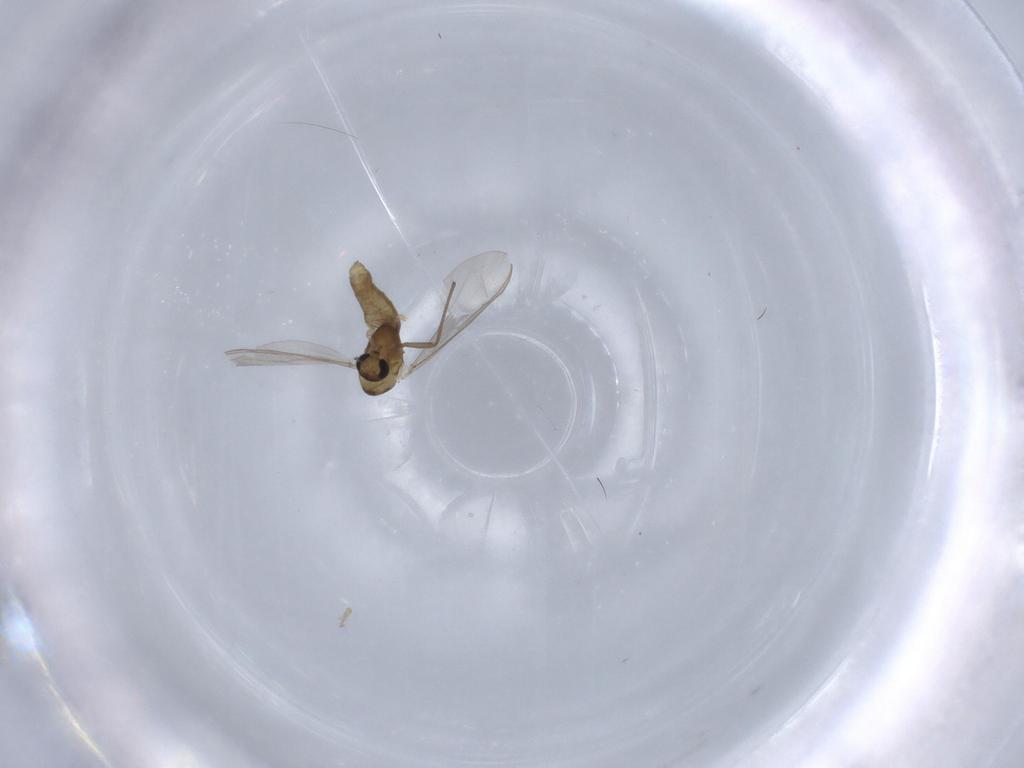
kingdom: Animalia
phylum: Arthropoda
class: Insecta
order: Diptera
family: Chironomidae
